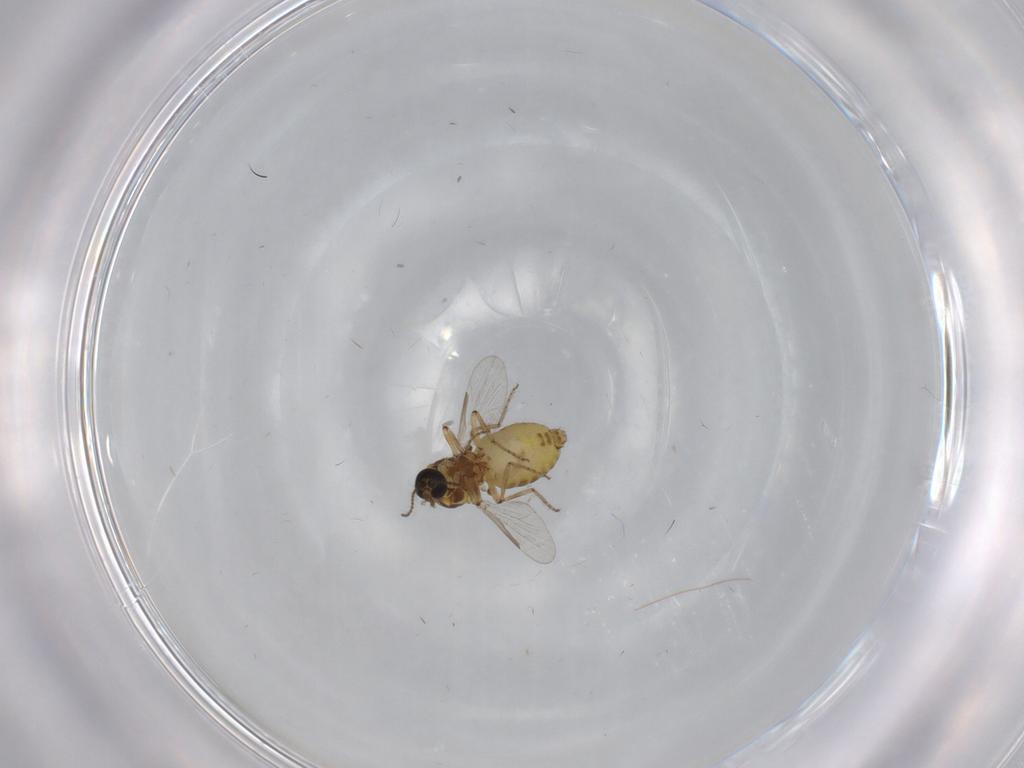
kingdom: Animalia
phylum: Arthropoda
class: Insecta
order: Diptera
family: Ceratopogonidae
